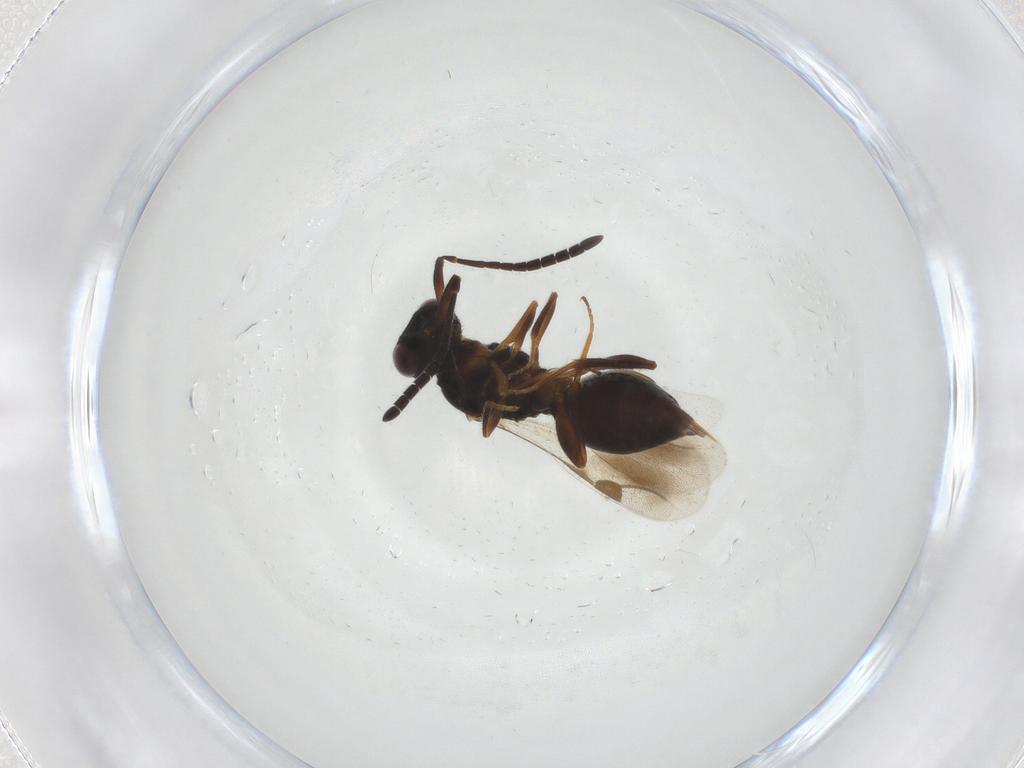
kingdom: Animalia
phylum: Arthropoda
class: Insecta
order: Hymenoptera
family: Megaspilidae
